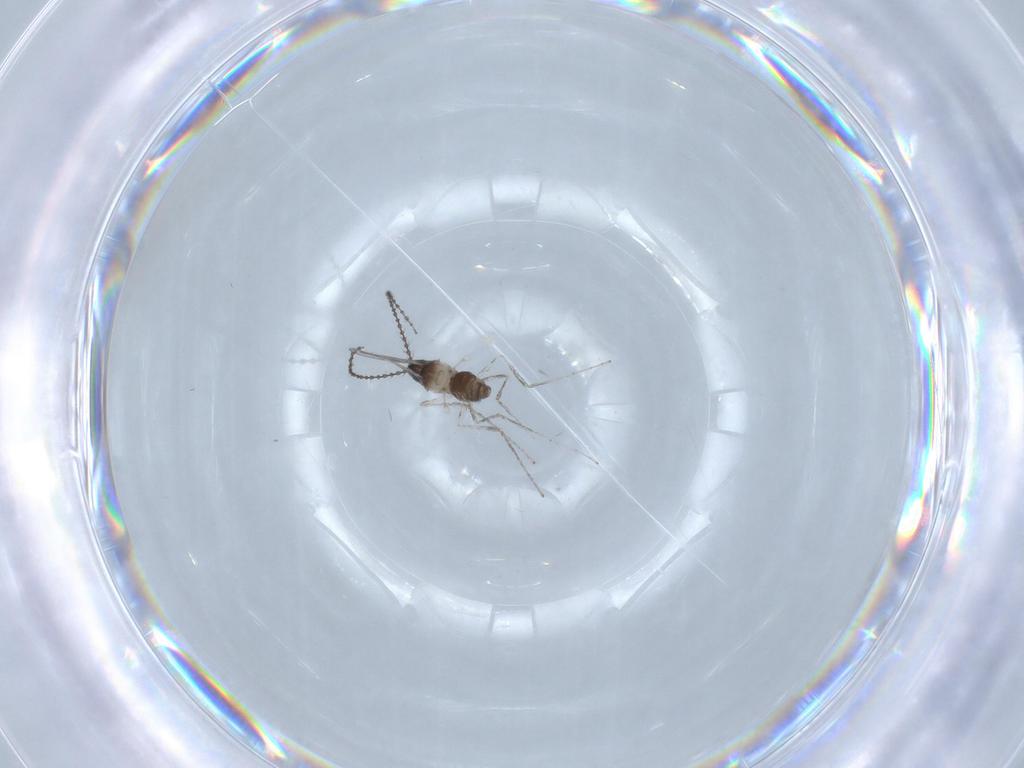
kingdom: Animalia
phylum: Arthropoda
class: Insecta
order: Diptera
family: Cecidomyiidae
